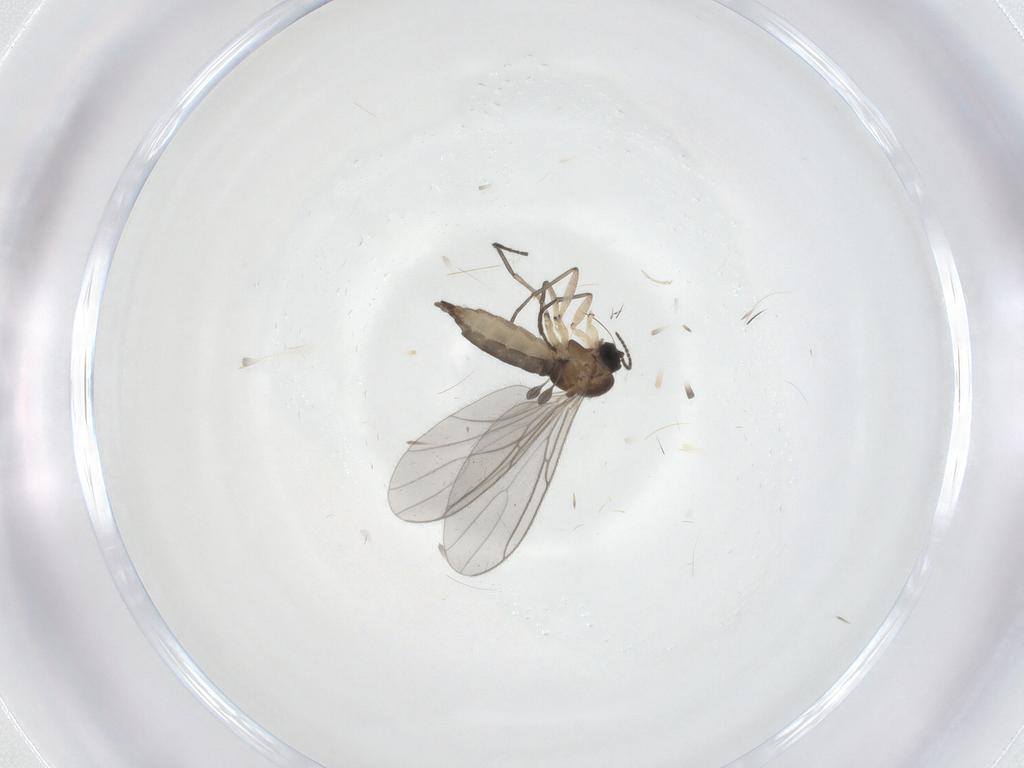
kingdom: Animalia
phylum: Arthropoda
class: Insecta
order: Diptera
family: Sciaridae
